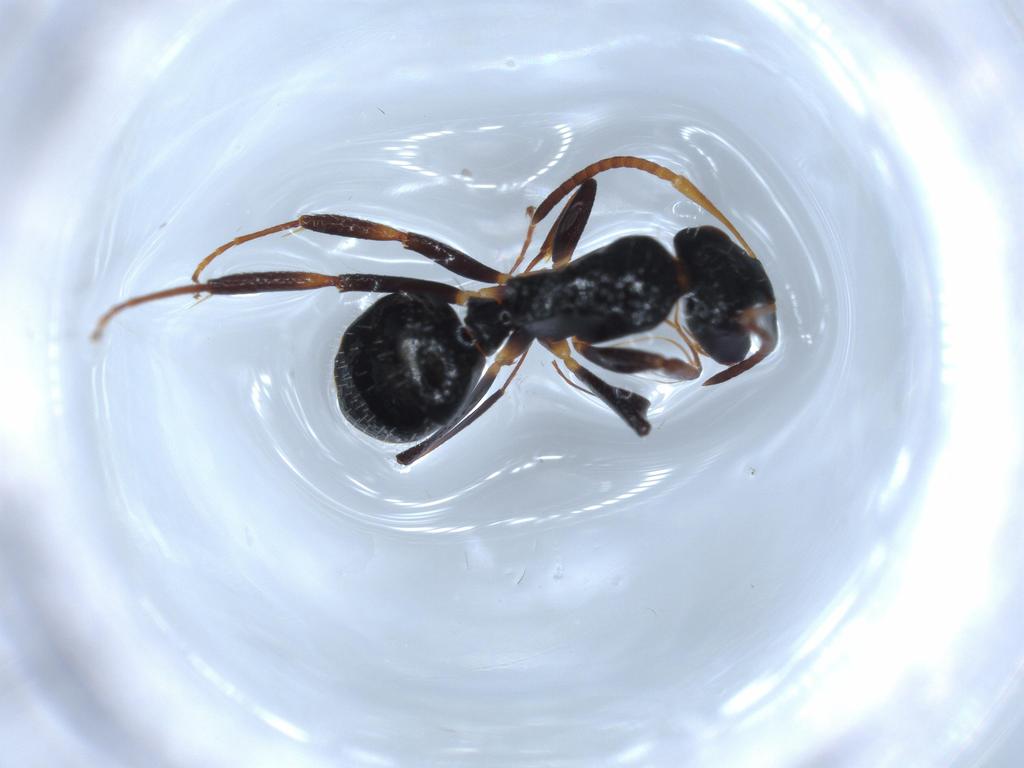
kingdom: Animalia
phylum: Arthropoda
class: Insecta
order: Hymenoptera
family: Formicidae
